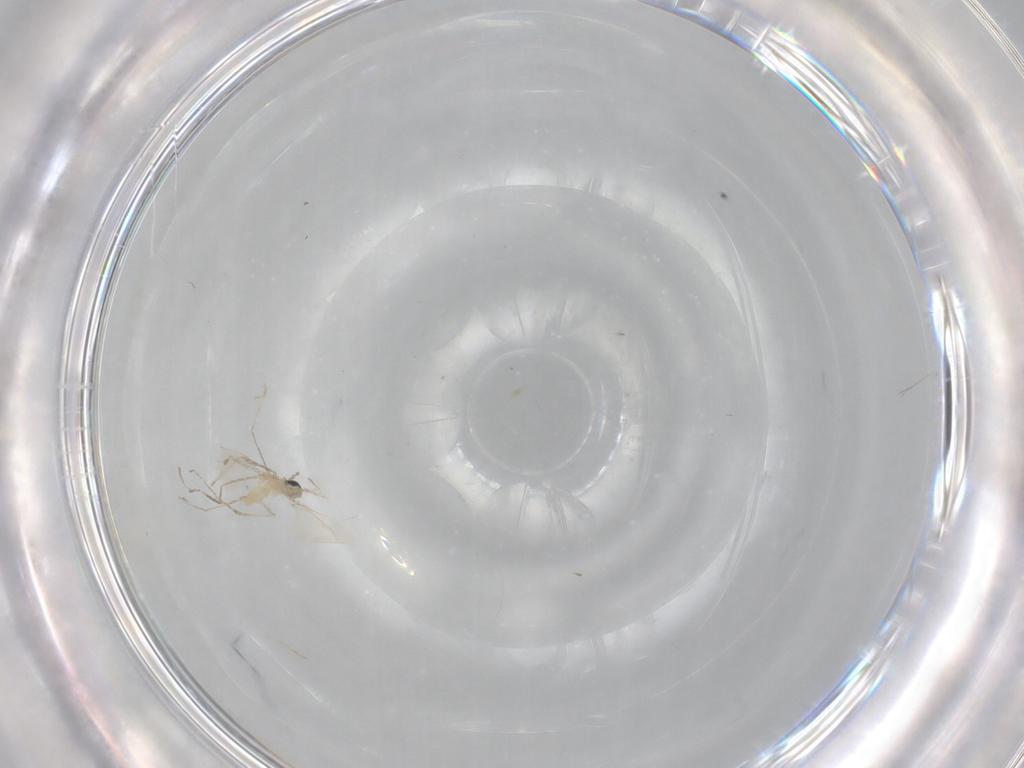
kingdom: Animalia
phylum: Arthropoda
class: Insecta
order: Diptera
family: Cecidomyiidae
